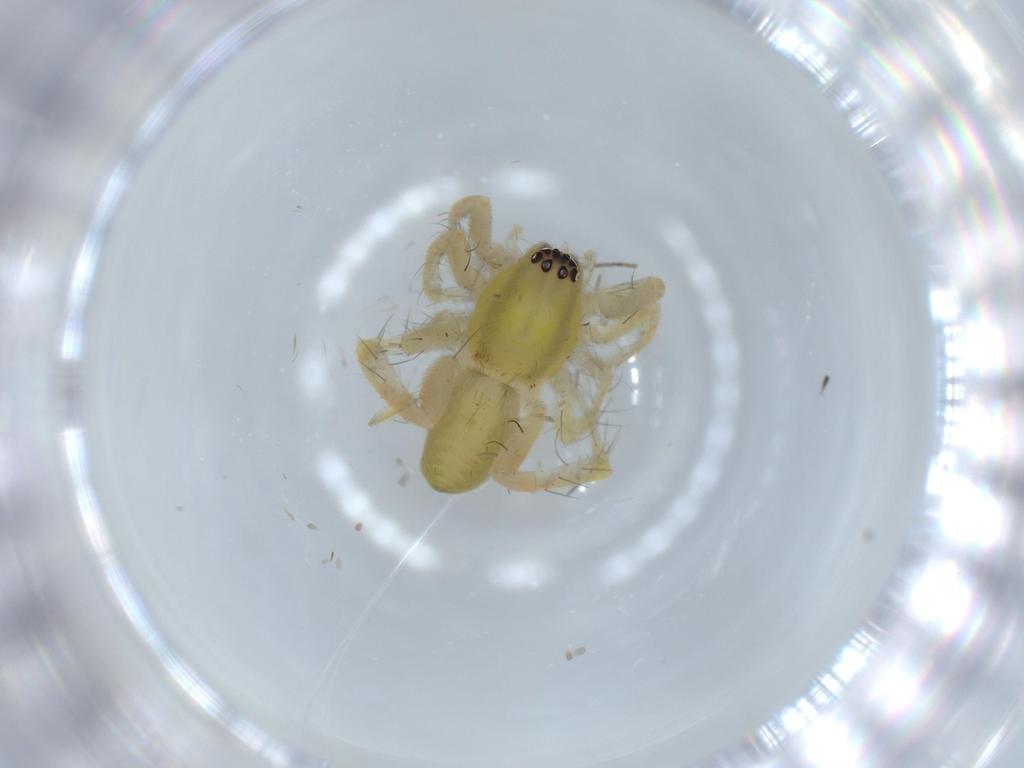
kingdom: Animalia
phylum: Arthropoda
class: Arachnida
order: Araneae
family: Anyphaenidae
